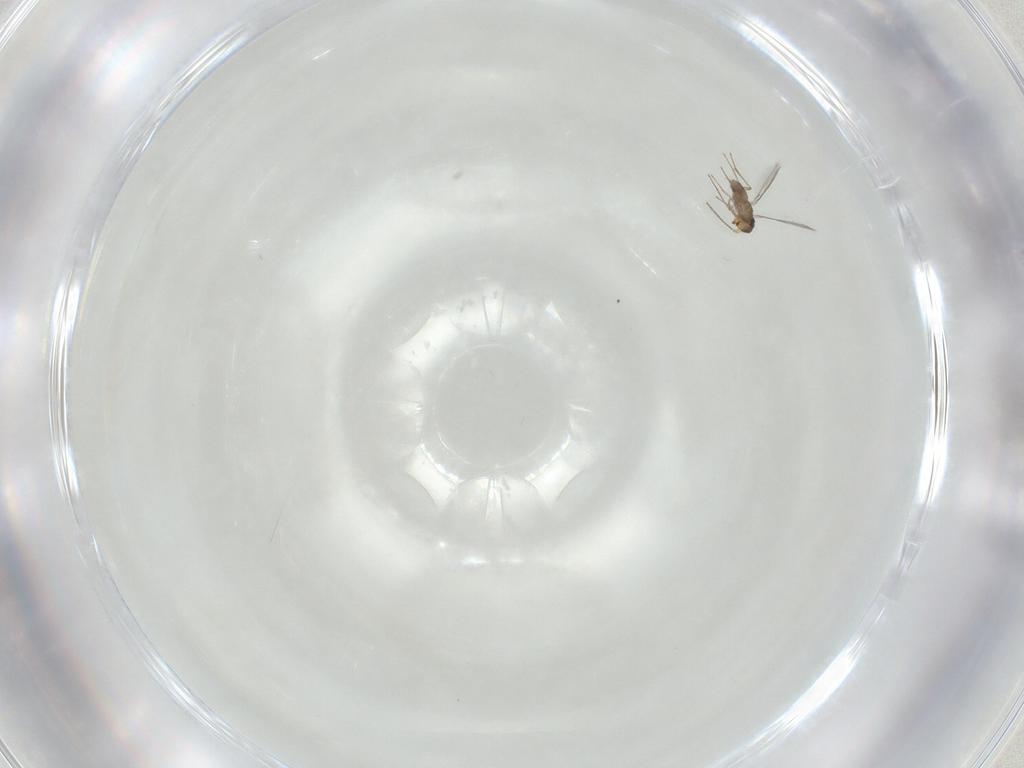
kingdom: Animalia
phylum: Arthropoda
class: Insecta
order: Hymenoptera
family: Mymaridae
